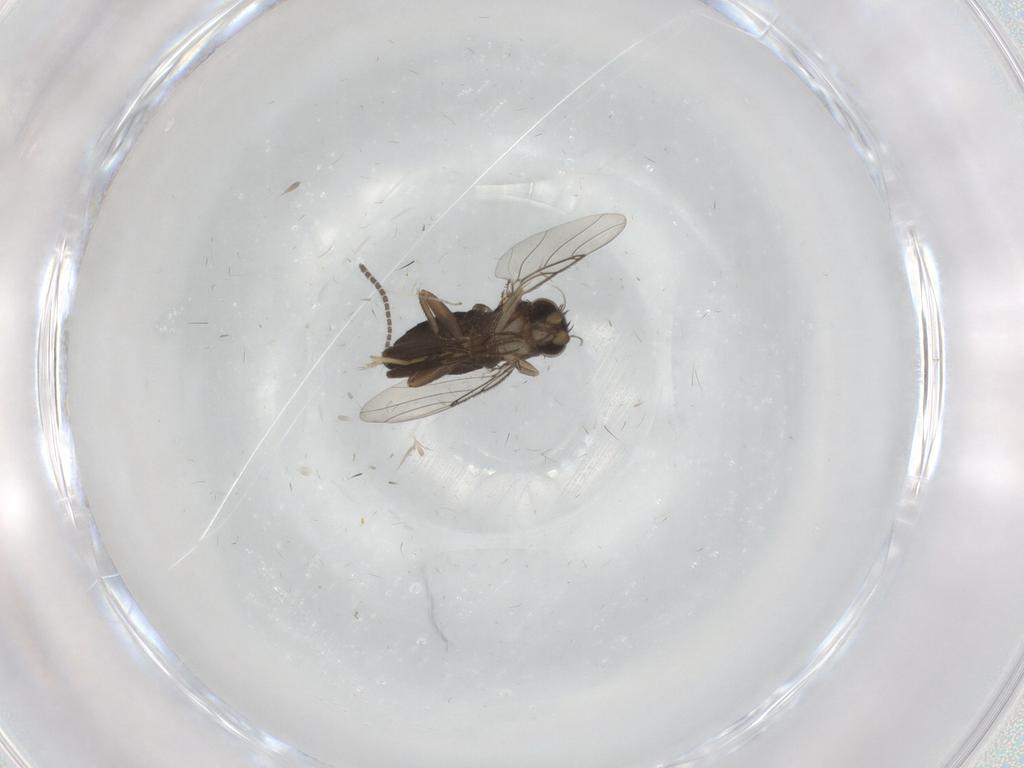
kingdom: Animalia
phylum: Arthropoda
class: Insecta
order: Diptera
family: Sciaridae
